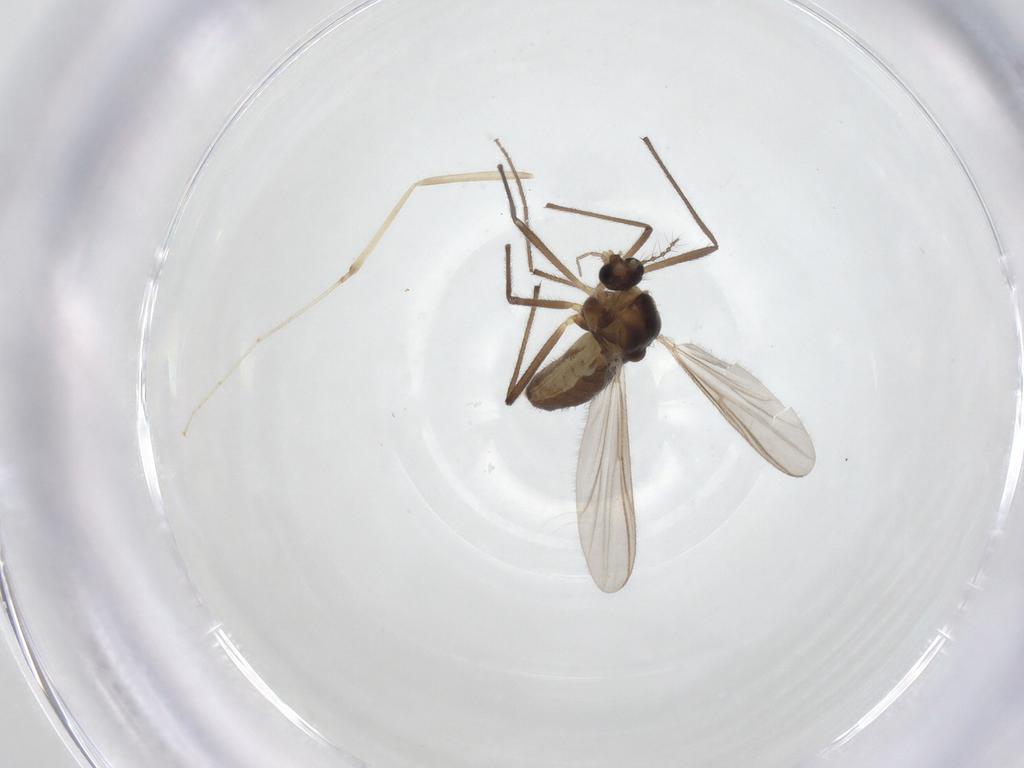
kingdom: Animalia
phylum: Arthropoda
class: Insecta
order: Diptera
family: Chironomidae
